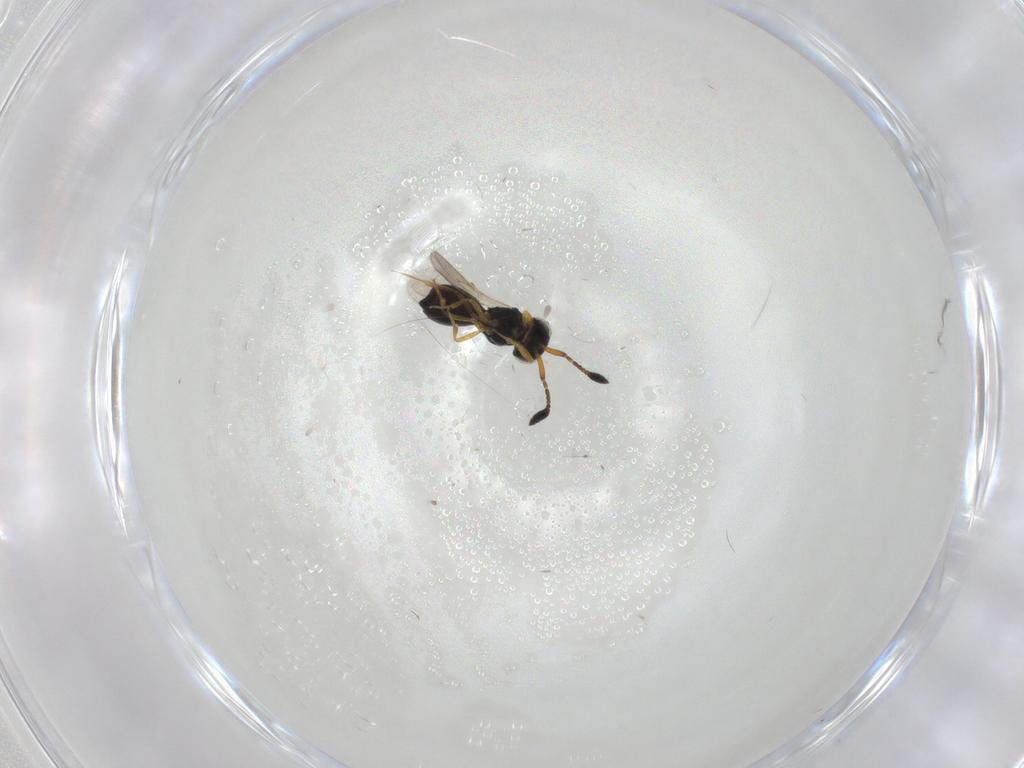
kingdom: Animalia
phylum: Arthropoda
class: Insecta
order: Hymenoptera
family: Scelionidae
